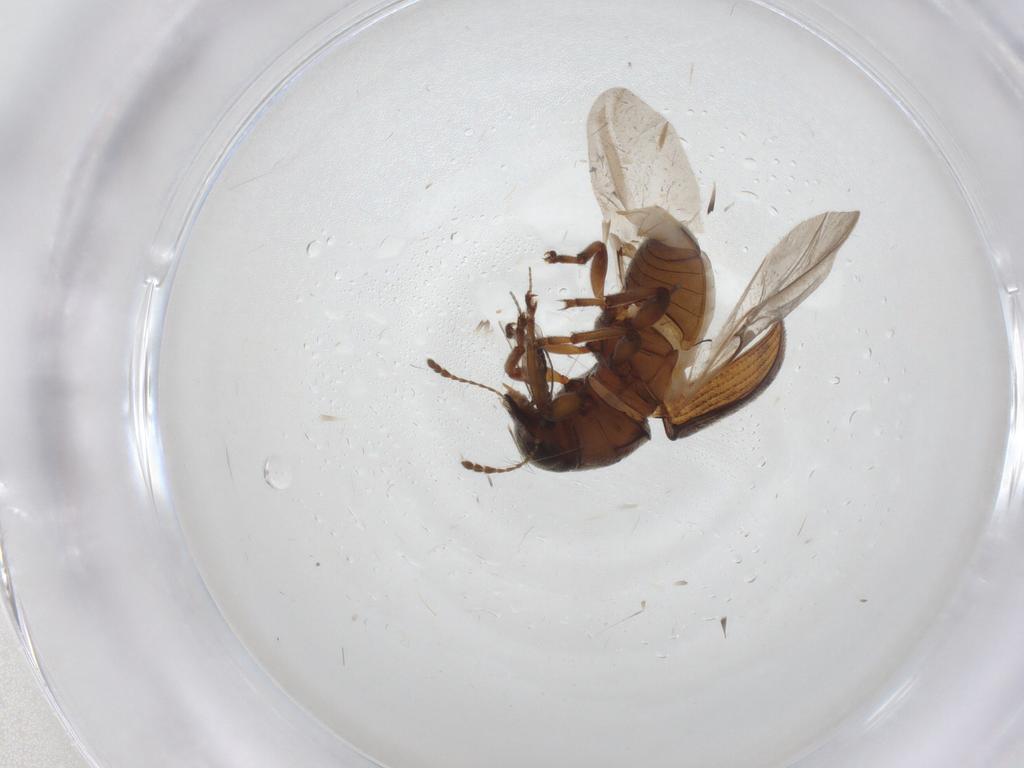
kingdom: Animalia
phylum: Arthropoda
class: Insecta
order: Coleoptera
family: Anthribidae
